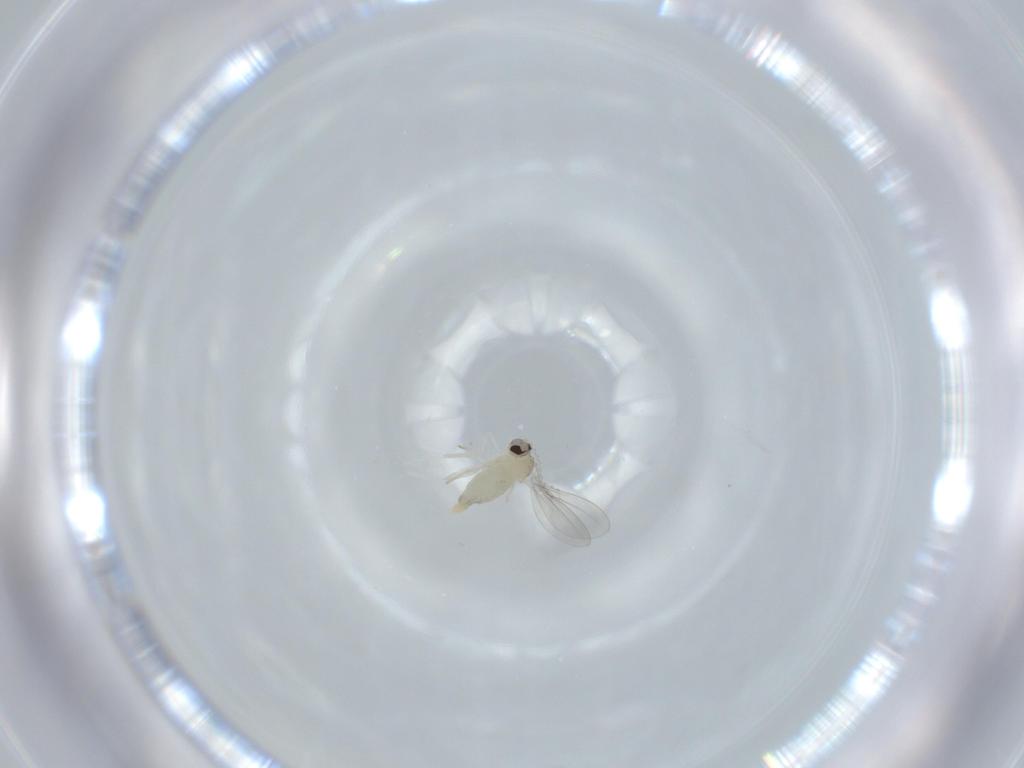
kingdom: Animalia
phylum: Arthropoda
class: Insecta
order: Diptera
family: Cecidomyiidae
